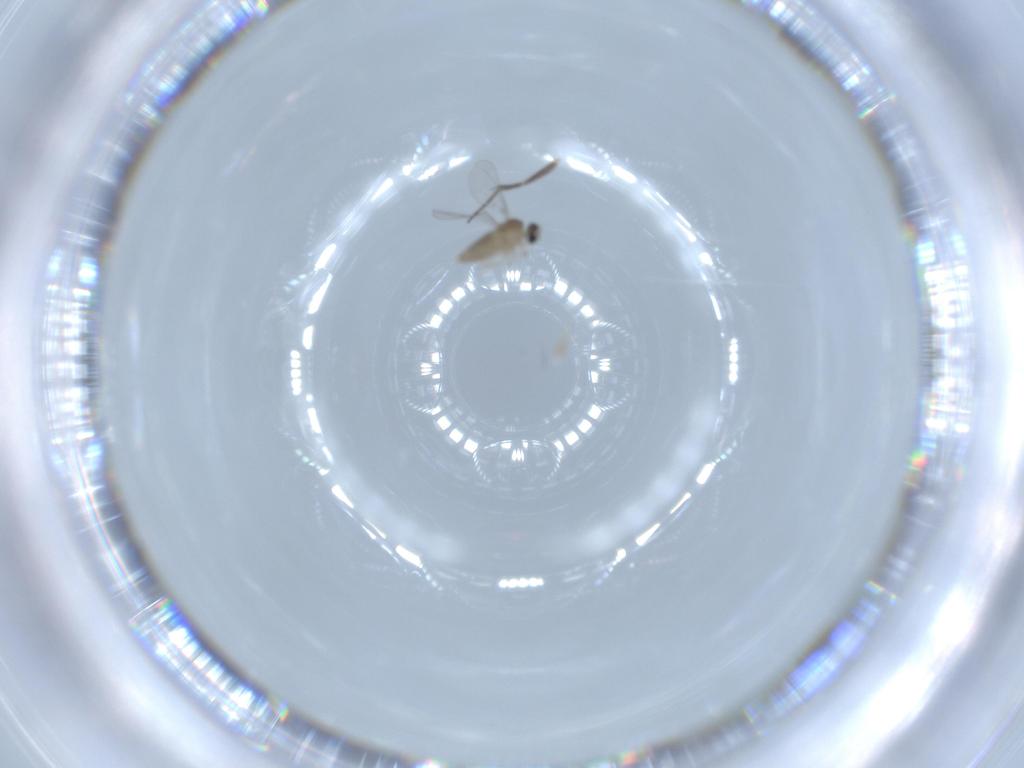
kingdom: Animalia
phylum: Arthropoda
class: Insecta
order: Diptera
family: Cecidomyiidae
